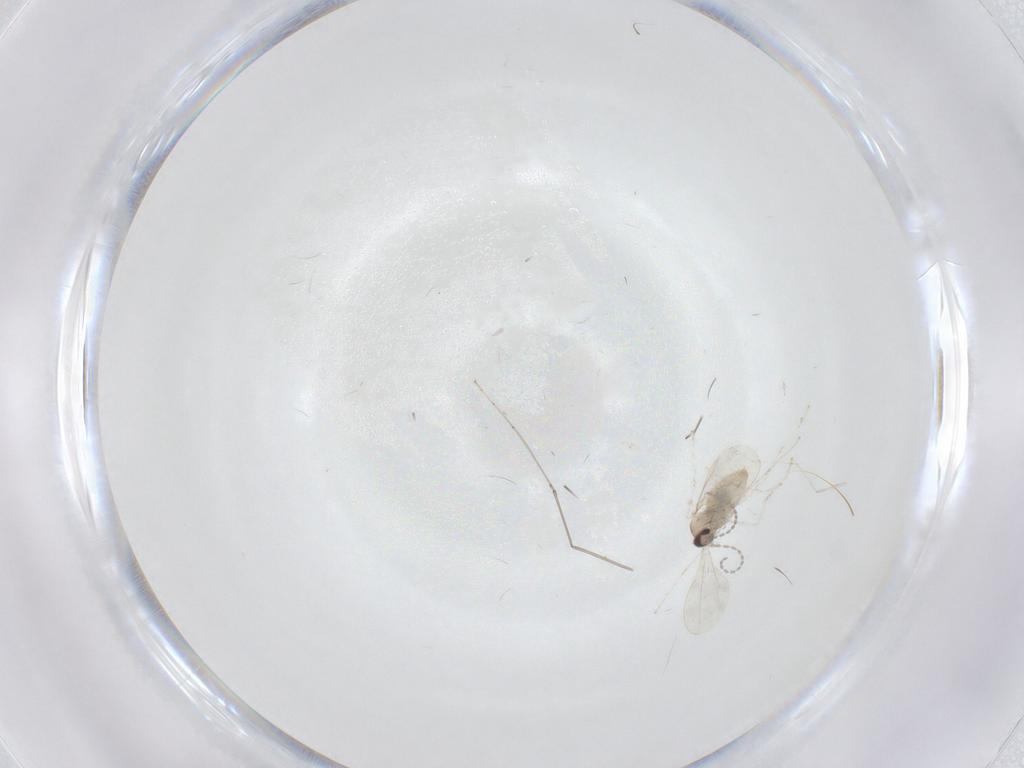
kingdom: Animalia
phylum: Arthropoda
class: Insecta
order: Diptera
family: Cecidomyiidae
